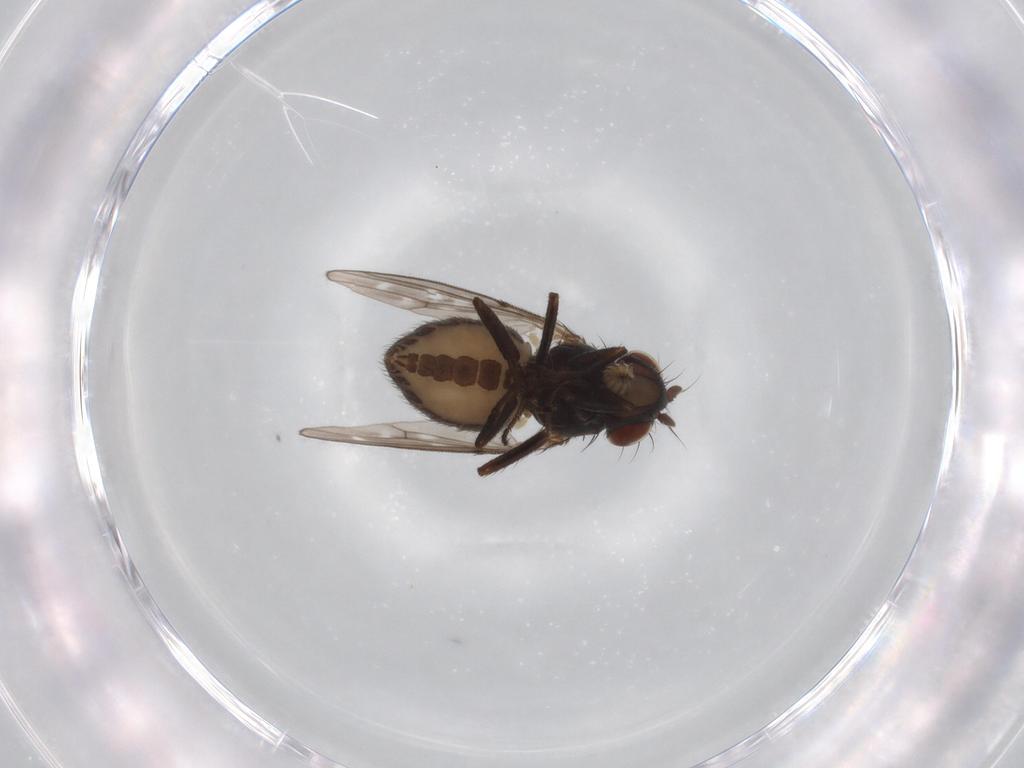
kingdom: Animalia
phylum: Arthropoda
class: Insecta
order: Diptera
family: Ephydridae
